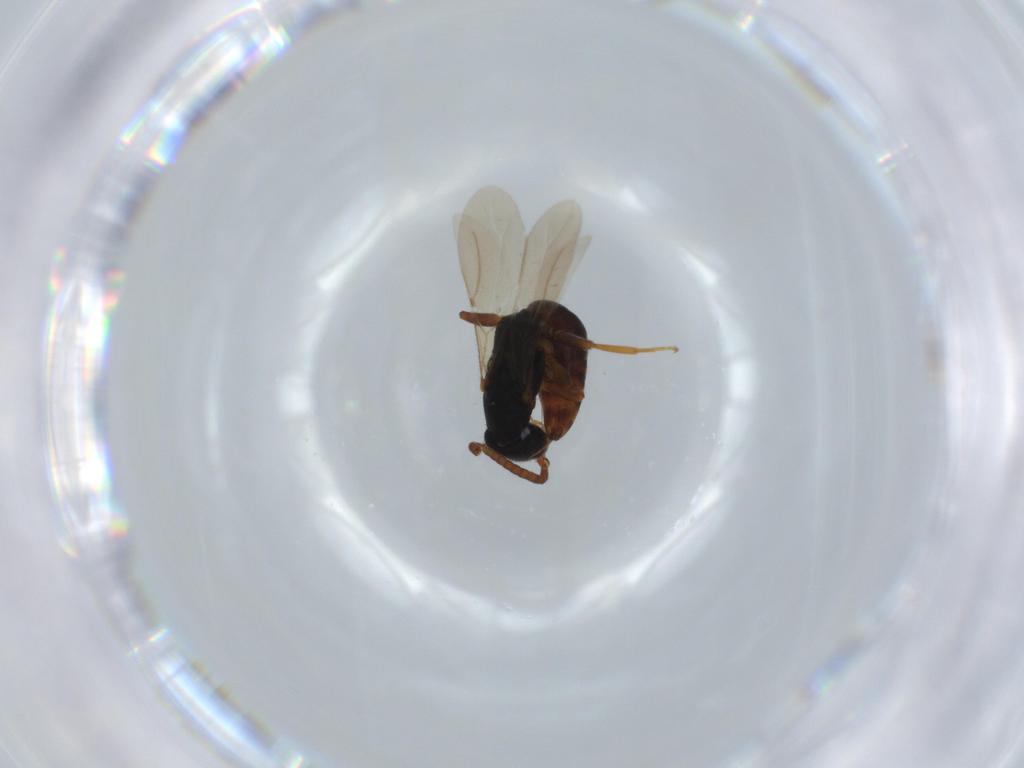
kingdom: Animalia
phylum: Arthropoda
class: Insecta
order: Hymenoptera
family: Bethylidae
